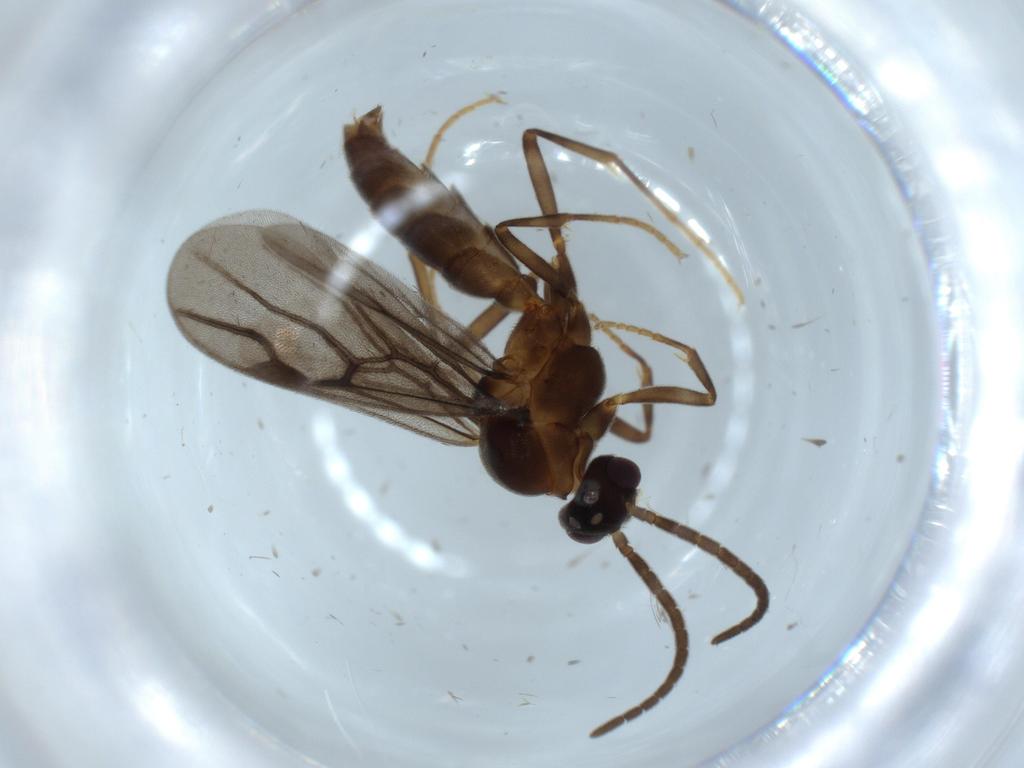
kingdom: Animalia
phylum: Arthropoda
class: Insecta
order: Hymenoptera
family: Formicidae
